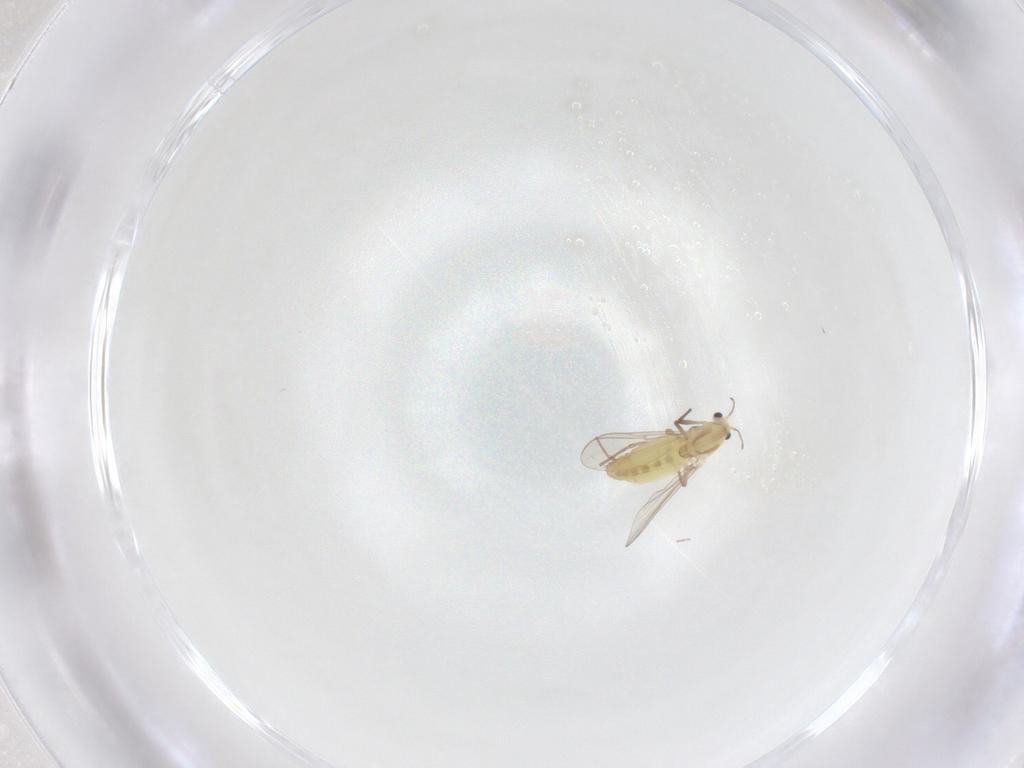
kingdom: Animalia
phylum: Arthropoda
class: Insecta
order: Diptera
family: Chironomidae
